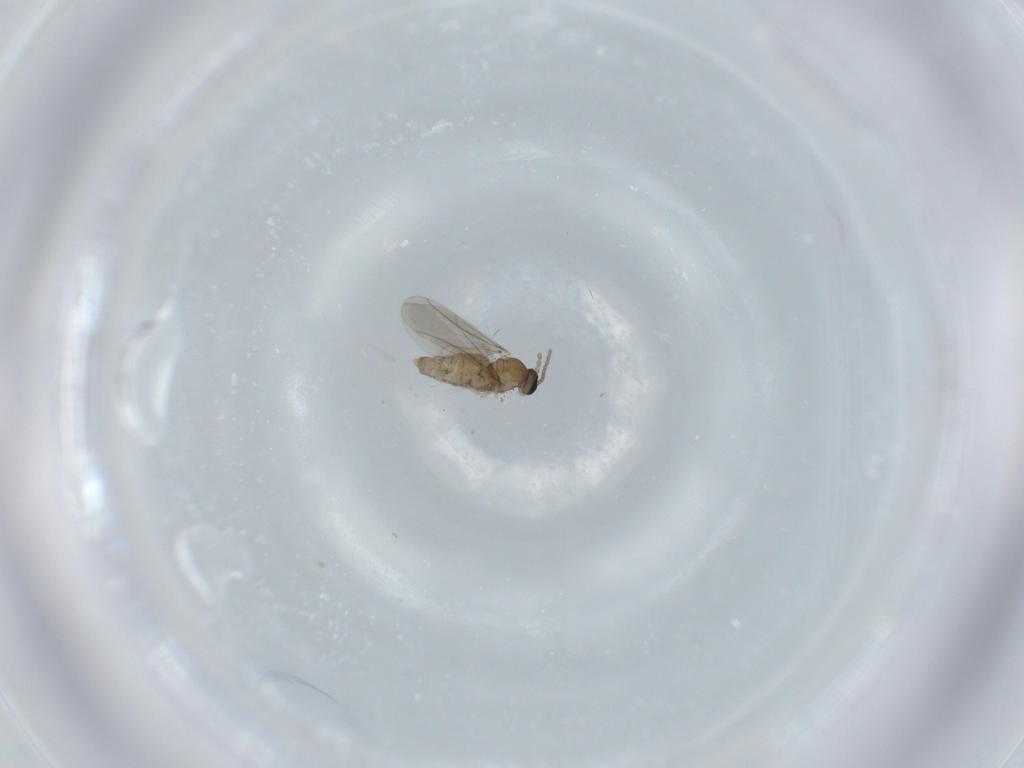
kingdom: Animalia
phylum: Arthropoda
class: Insecta
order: Diptera
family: Cecidomyiidae
